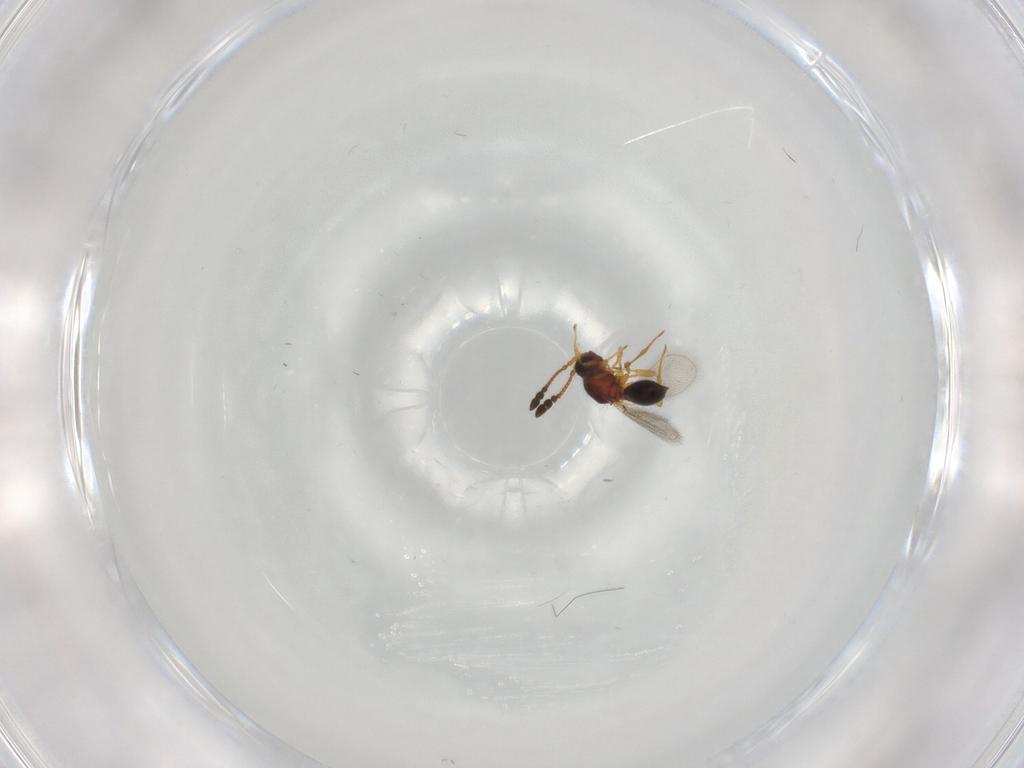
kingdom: Animalia
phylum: Arthropoda
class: Insecta
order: Hymenoptera
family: Diapriidae
